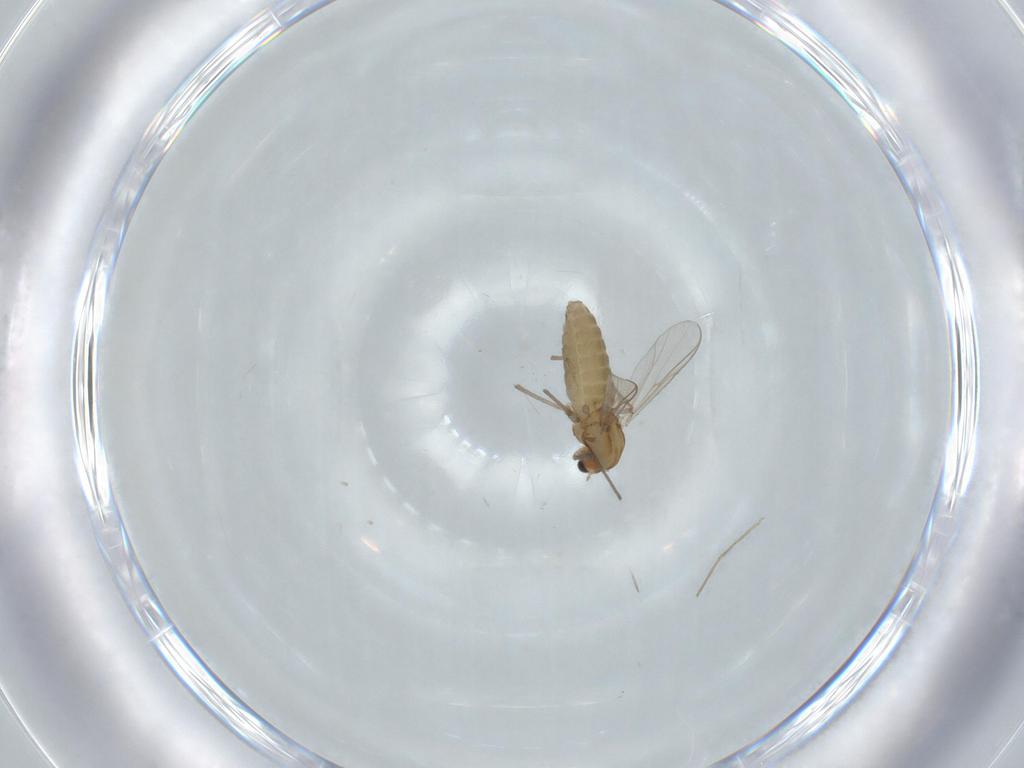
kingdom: Animalia
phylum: Arthropoda
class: Insecta
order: Diptera
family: Chironomidae
